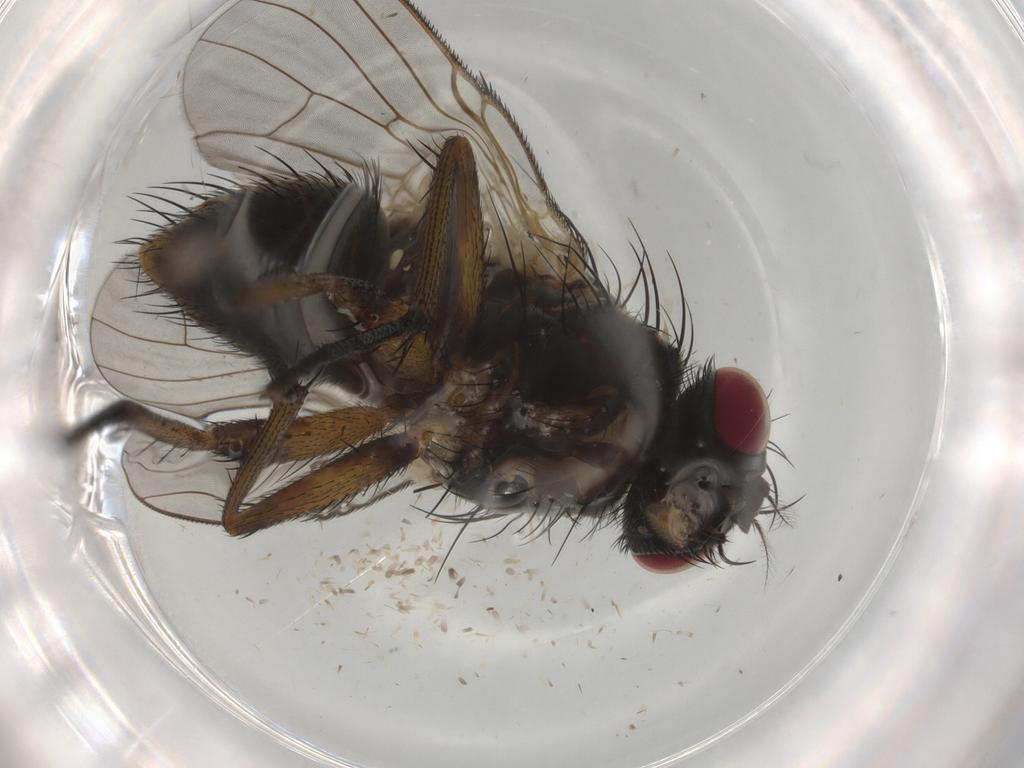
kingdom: Animalia
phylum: Arthropoda
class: Insecta
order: Diptera
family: Muscidae
